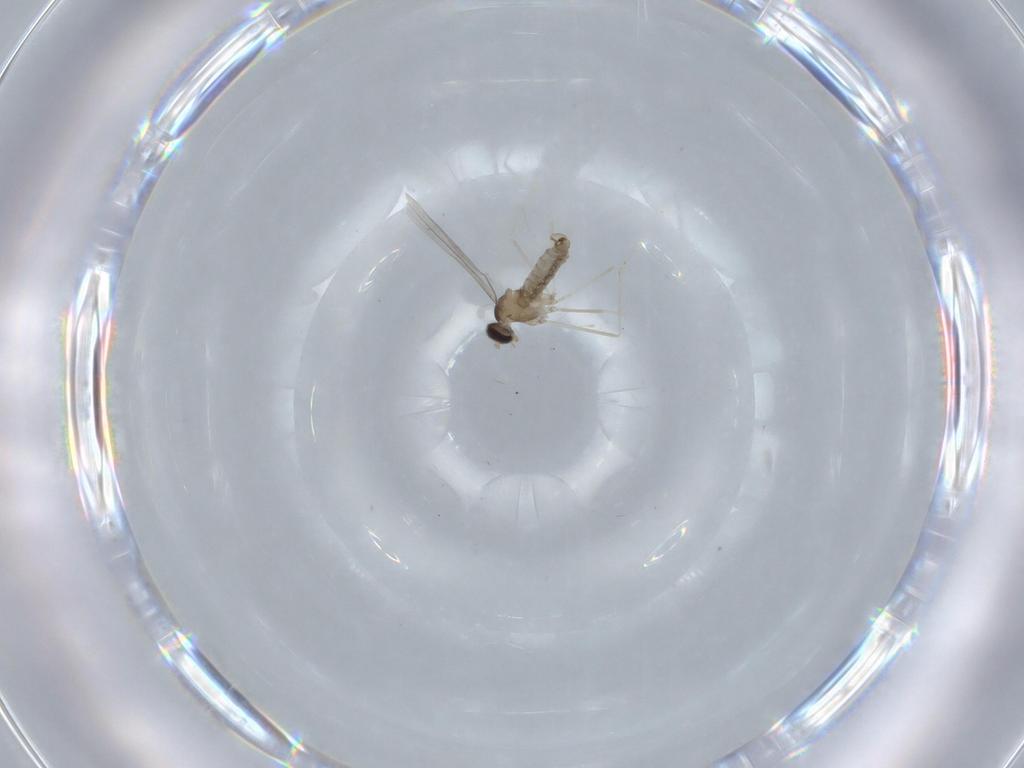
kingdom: Animalia
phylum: Arthropoda
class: Insecta
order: Diptera
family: Cecidomyiidae
